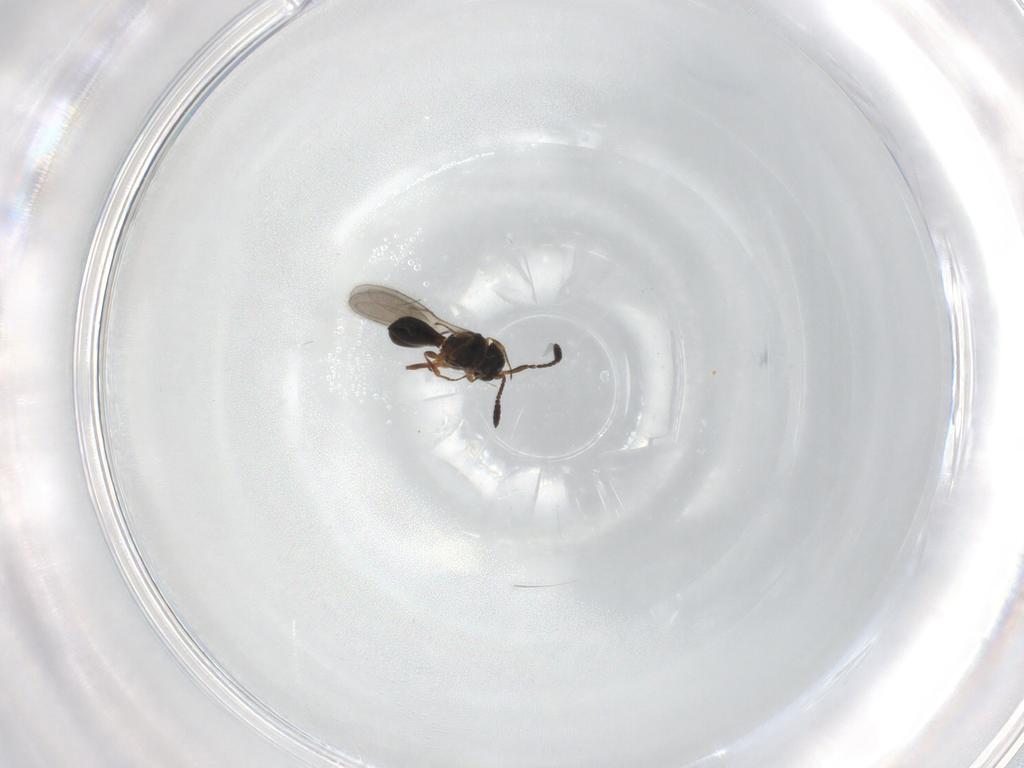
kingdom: Animalia
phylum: Arthropoda
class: Insecta
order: Hymenoptera
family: Scelionidae
